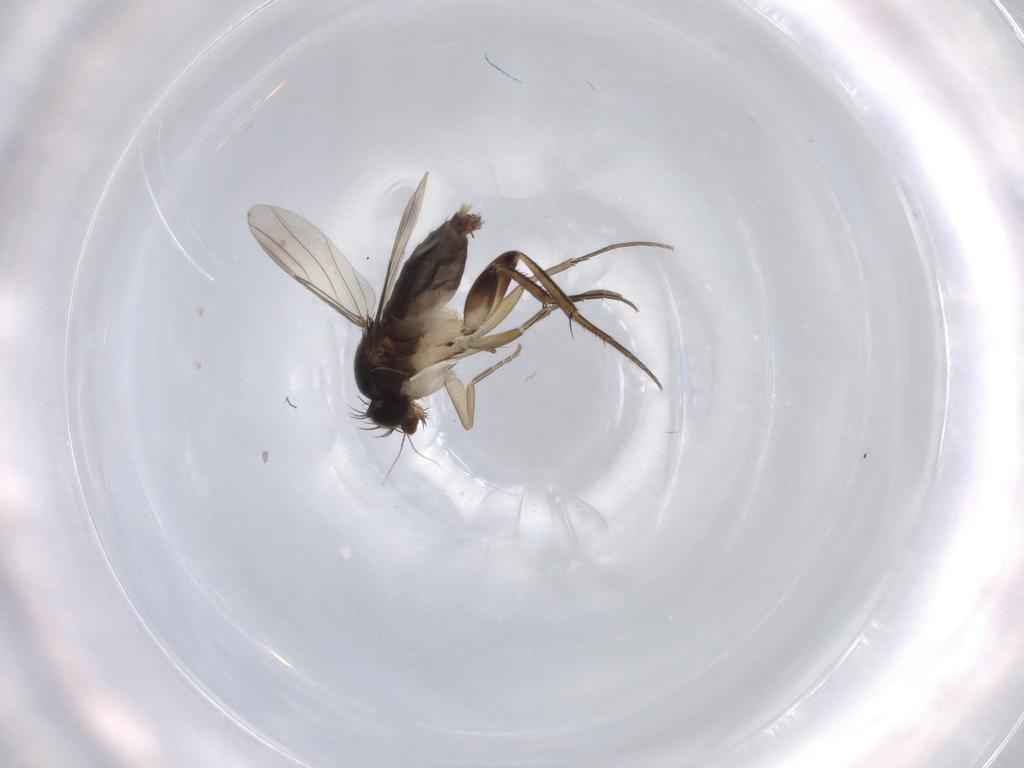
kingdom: Animalia
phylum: Arthropoda
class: Insecta
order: Diptera
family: Phoridae
